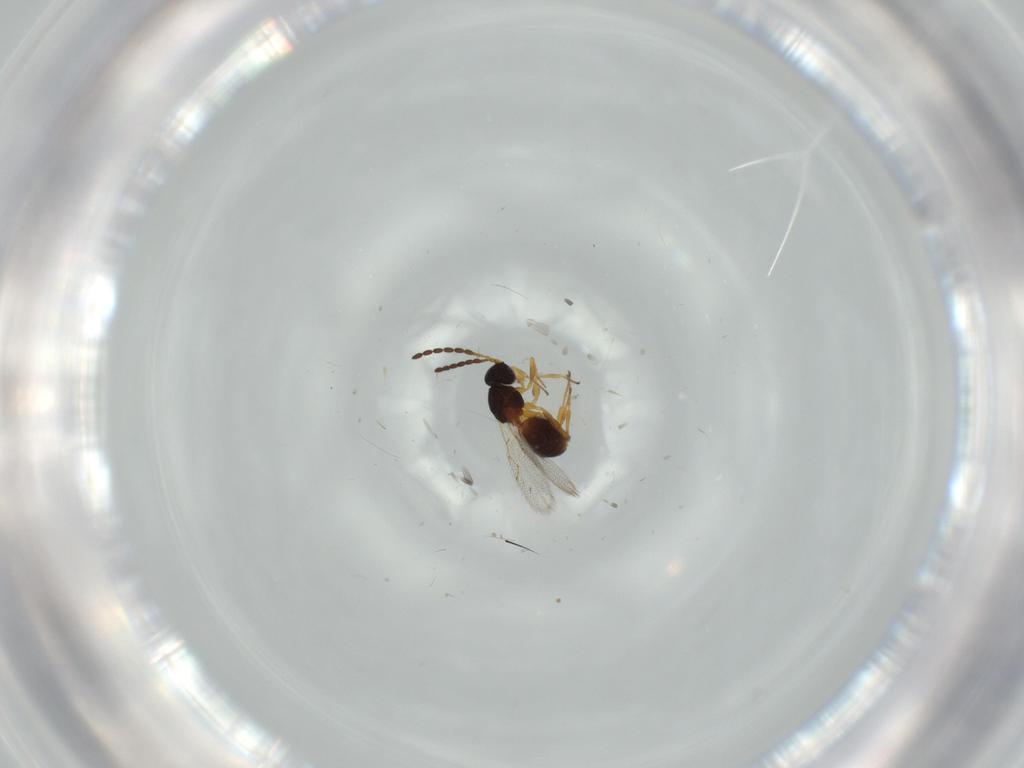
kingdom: Animalia
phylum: Arthropoda
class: Insecta
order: Hymenoptera
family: Figitidae
